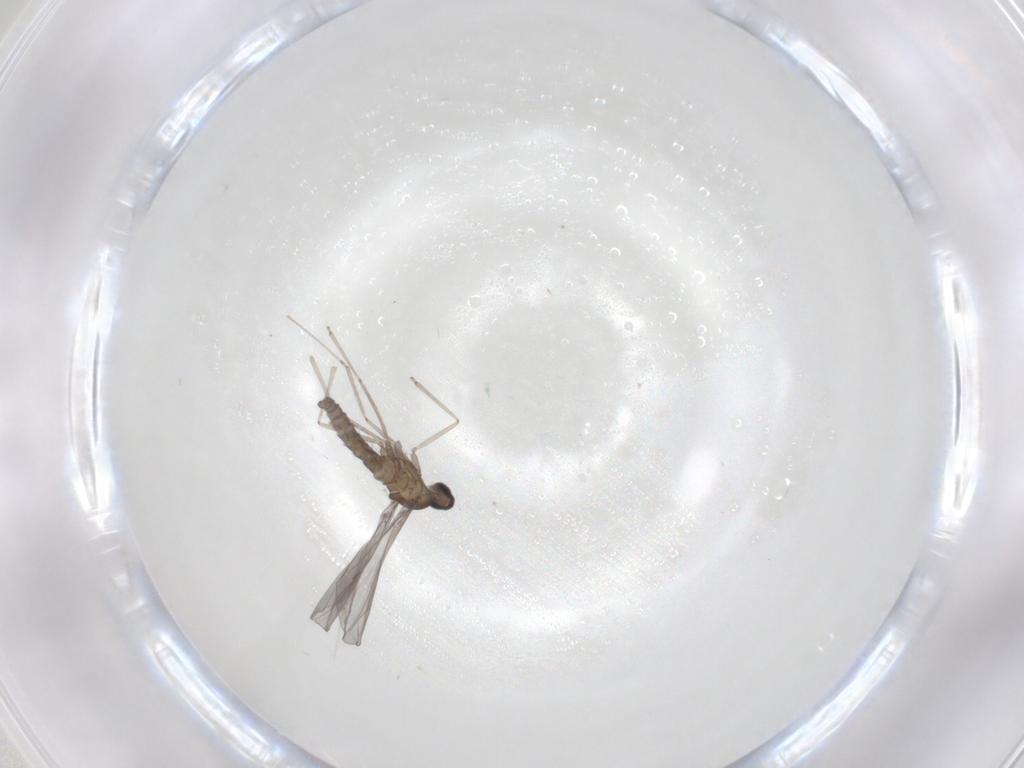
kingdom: Animalia
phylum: Arthropoda
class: Insecta
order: Diptera
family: Cecidomyiidae
